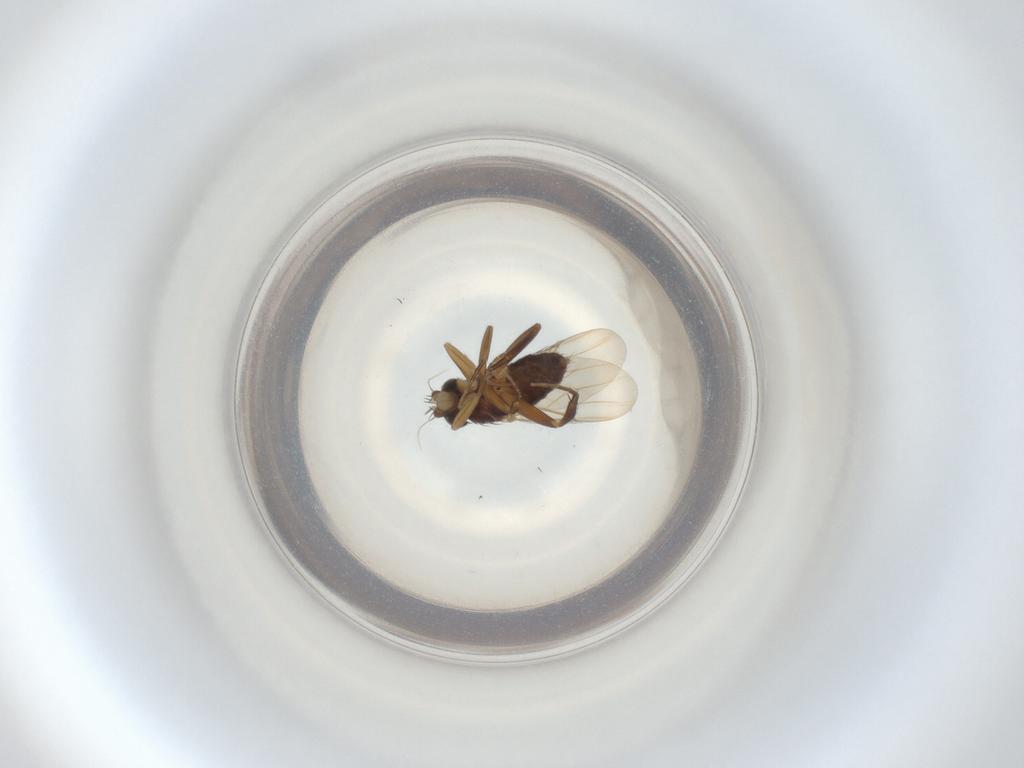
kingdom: Animalia
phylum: Arthropoda
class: Insecta
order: Diptera
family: Phoridae
